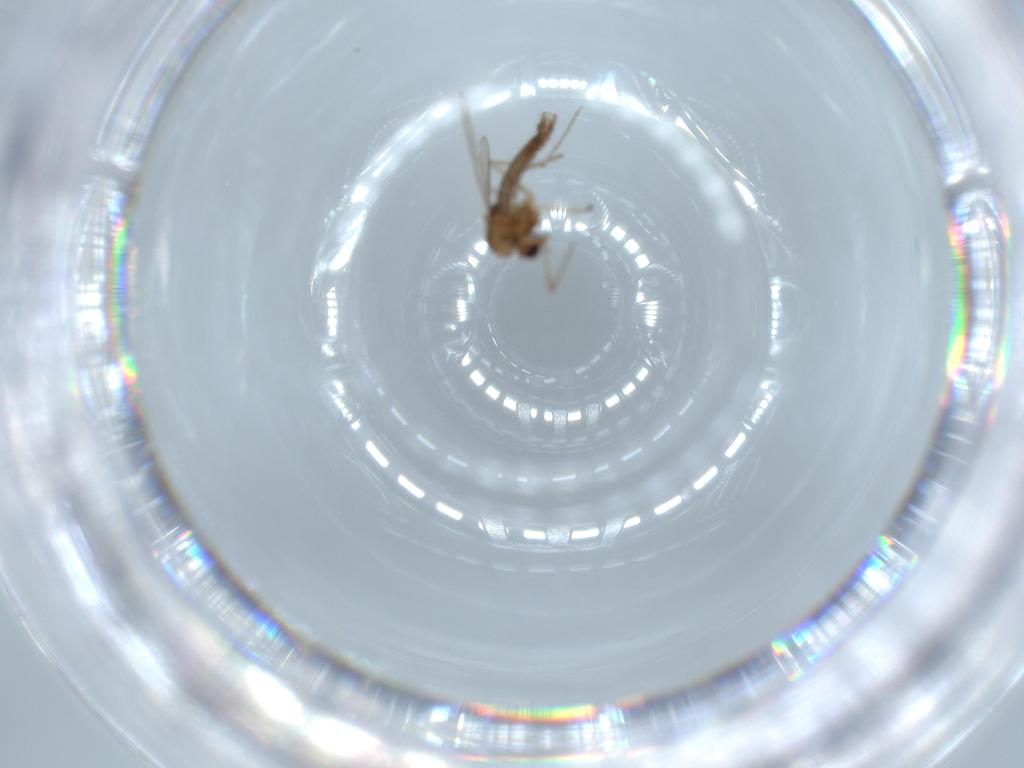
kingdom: Animalia
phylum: Arthropoda
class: Insecta
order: Diptera
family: Chironomidae
